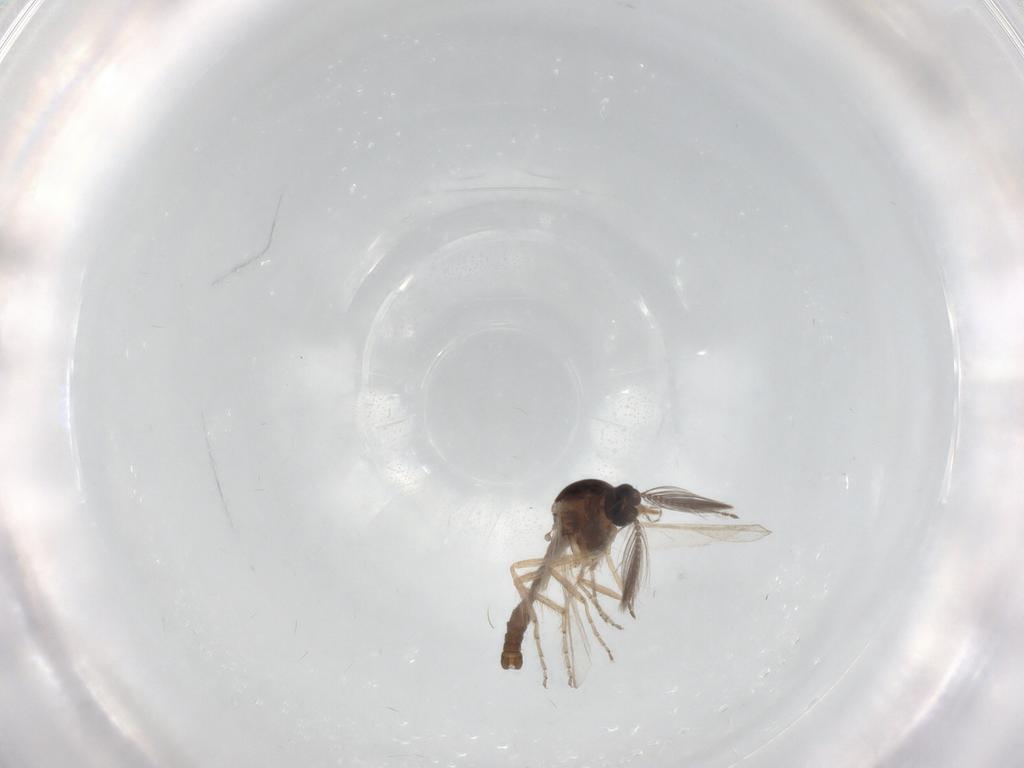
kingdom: Animalia
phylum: Arthropoda
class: Insecta
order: Diptera
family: Ceratopogonidae
